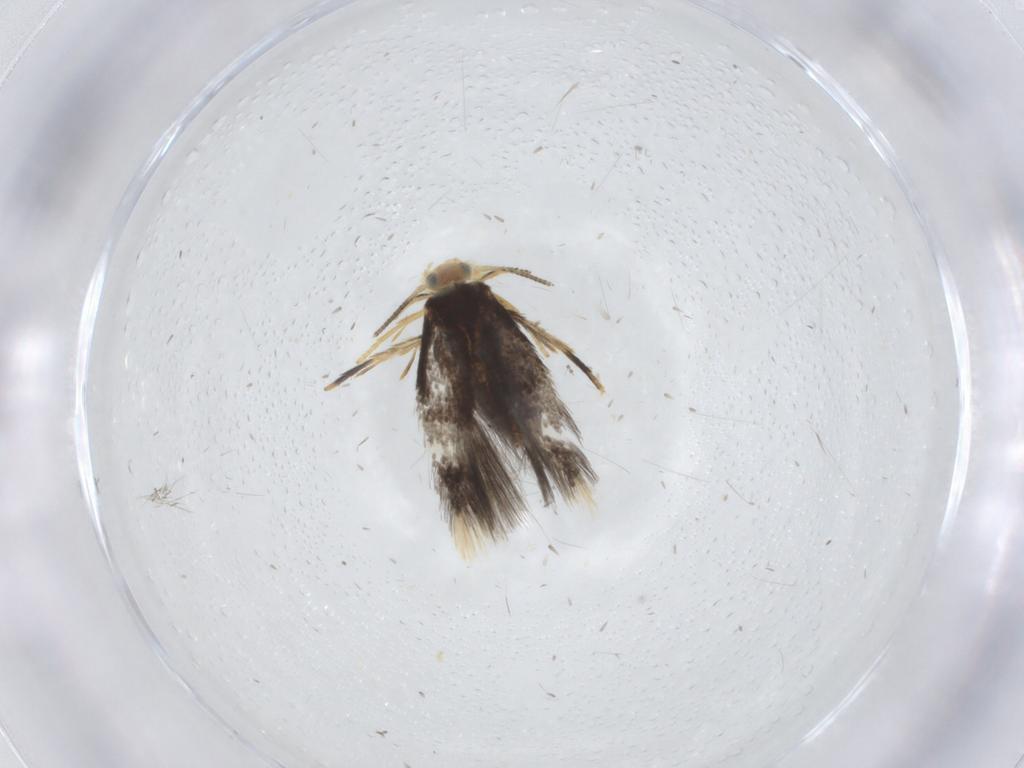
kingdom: Animalia
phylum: Arthropoda
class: Insecta
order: Lepidoptera
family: Nepticulidae
